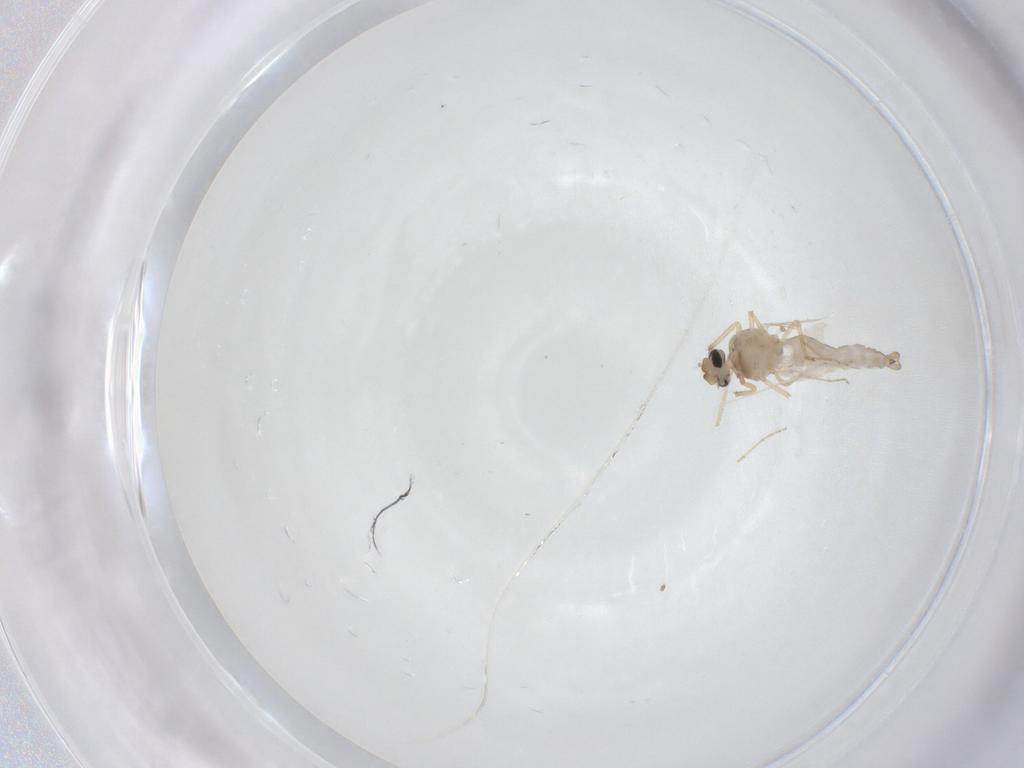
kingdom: Animalia
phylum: Arthropoda
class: Insecta
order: Diptera
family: Ceratopogonidae
